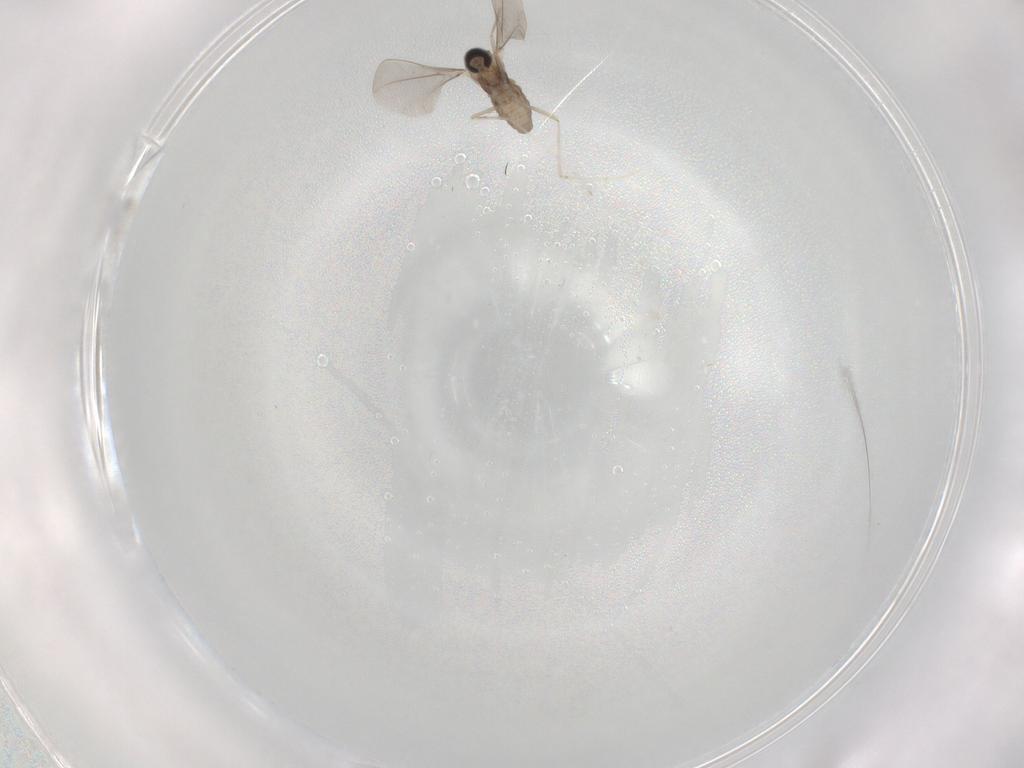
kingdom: Animalia
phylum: Arthropoda
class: Insecta
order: Diptera
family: Cecidomyiidae
